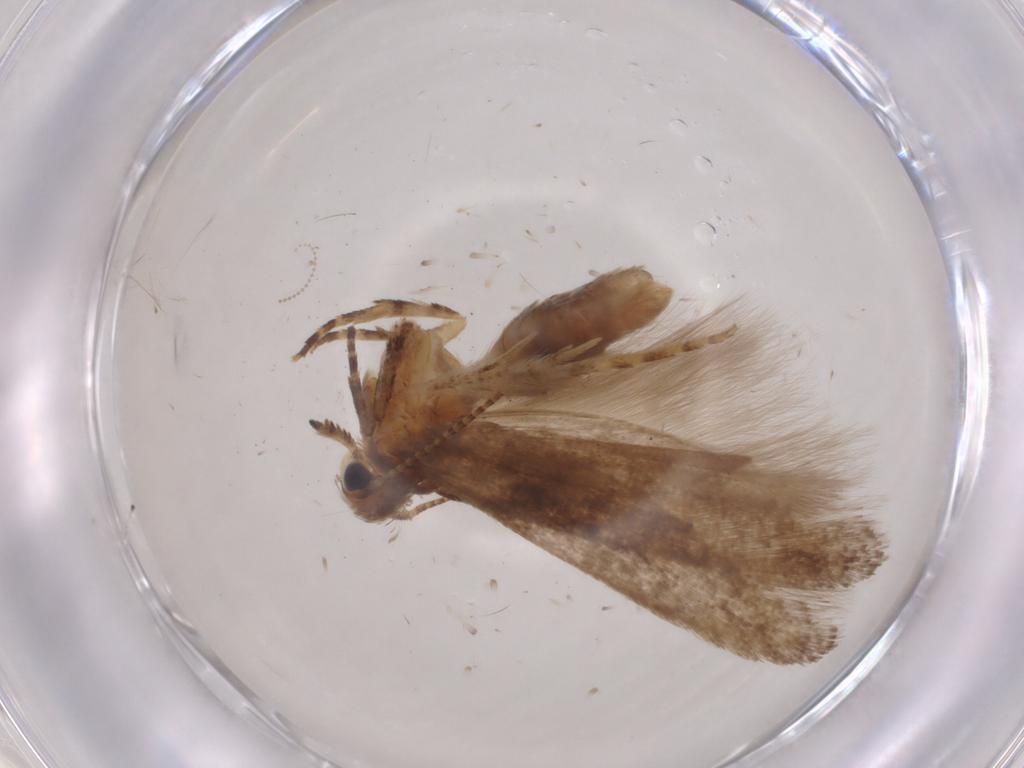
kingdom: Animalia
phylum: Arthropoda
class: Insecta
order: Lepidoptera
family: Gelechiidae
